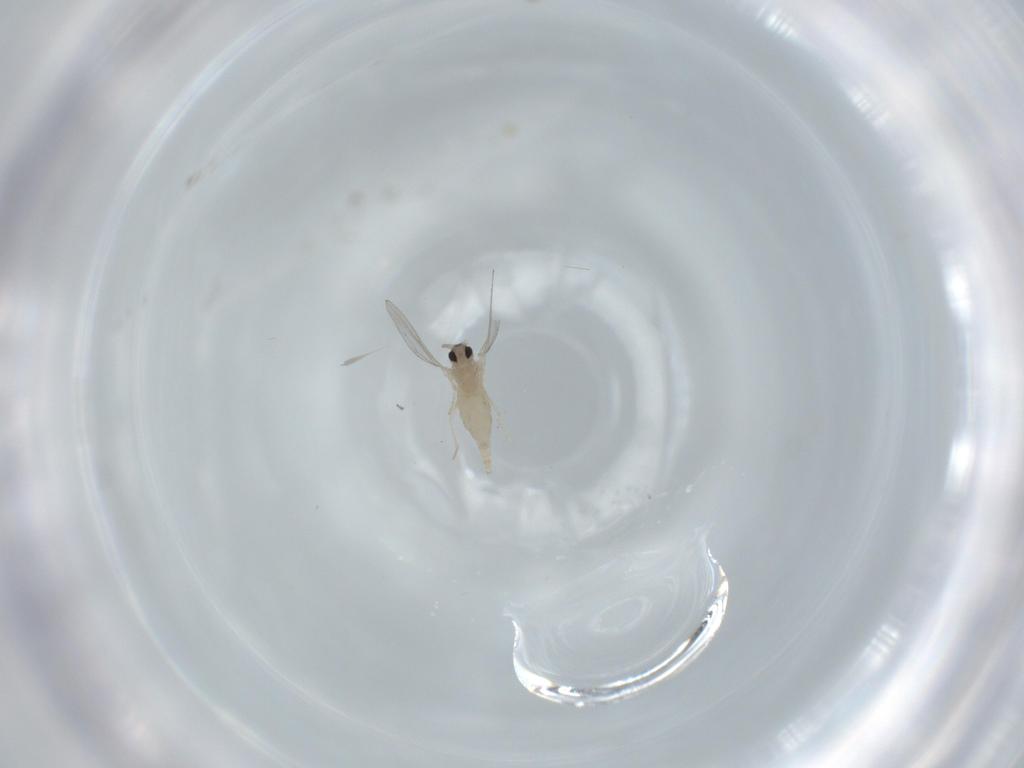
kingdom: Animalia
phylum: Arthropoda
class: Insecta
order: Diptera
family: Cecidomyiidae
